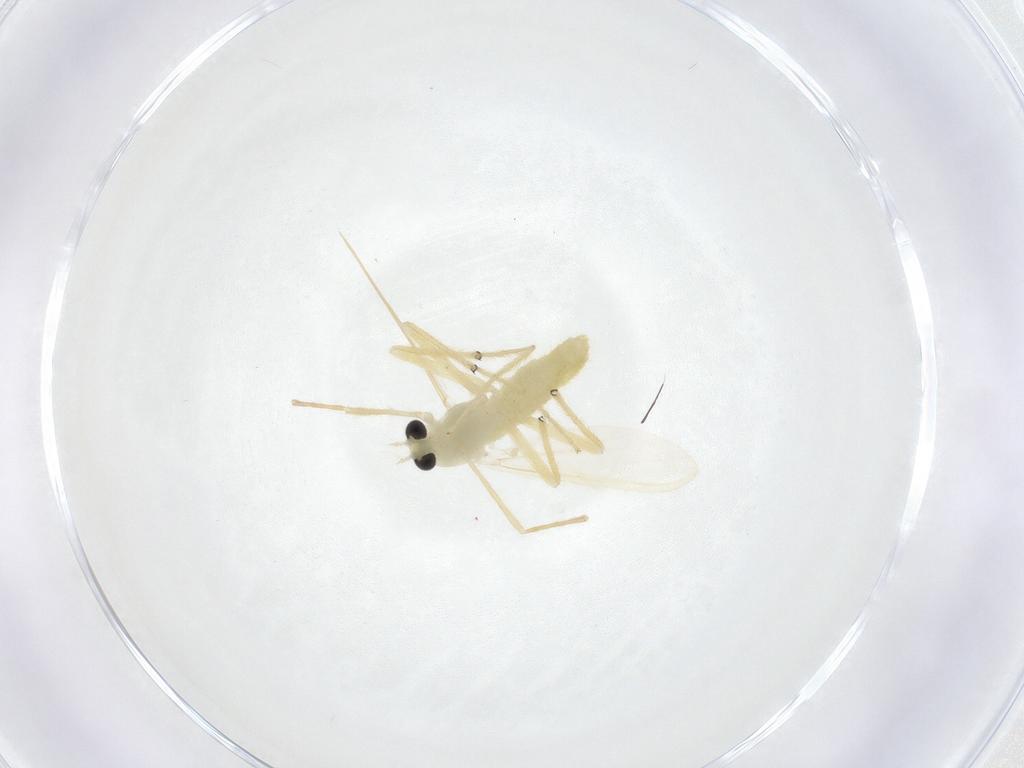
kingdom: Animalia
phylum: Arthropoda
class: Insecta
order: Diptera
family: Chironomidae
